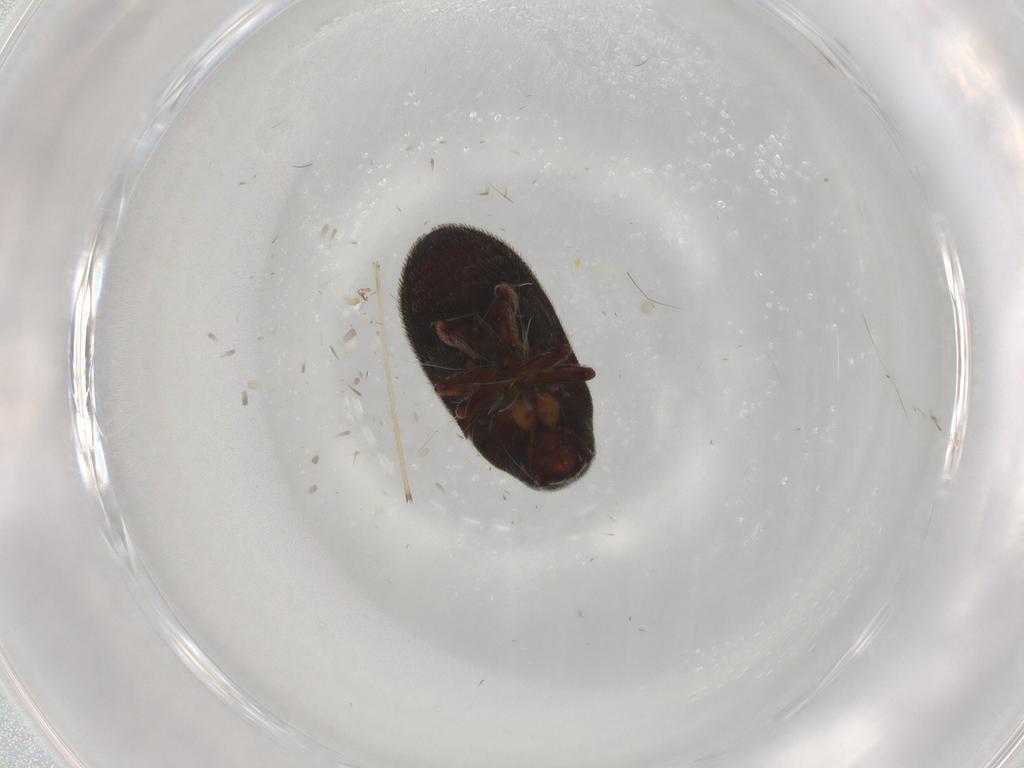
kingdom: Animalia
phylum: Arthropoda
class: Insecta
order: Coleoptera
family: Curculionidae
